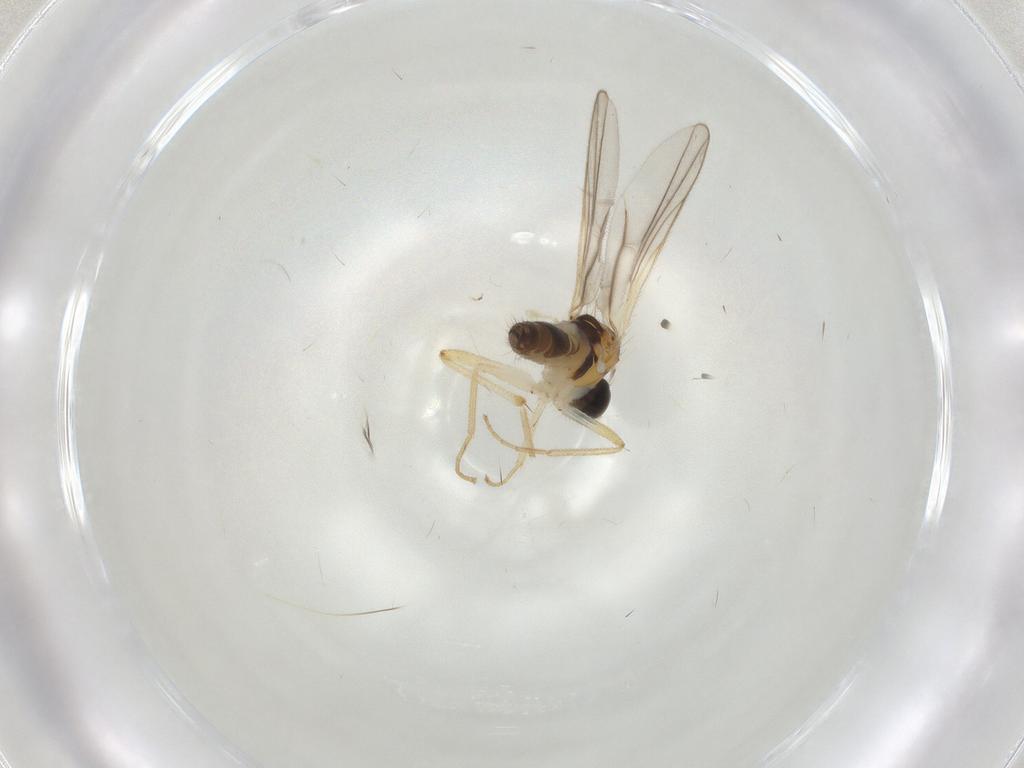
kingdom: Animalia
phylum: Arthropoda
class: Insecta
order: Diptera
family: Hybotidae
